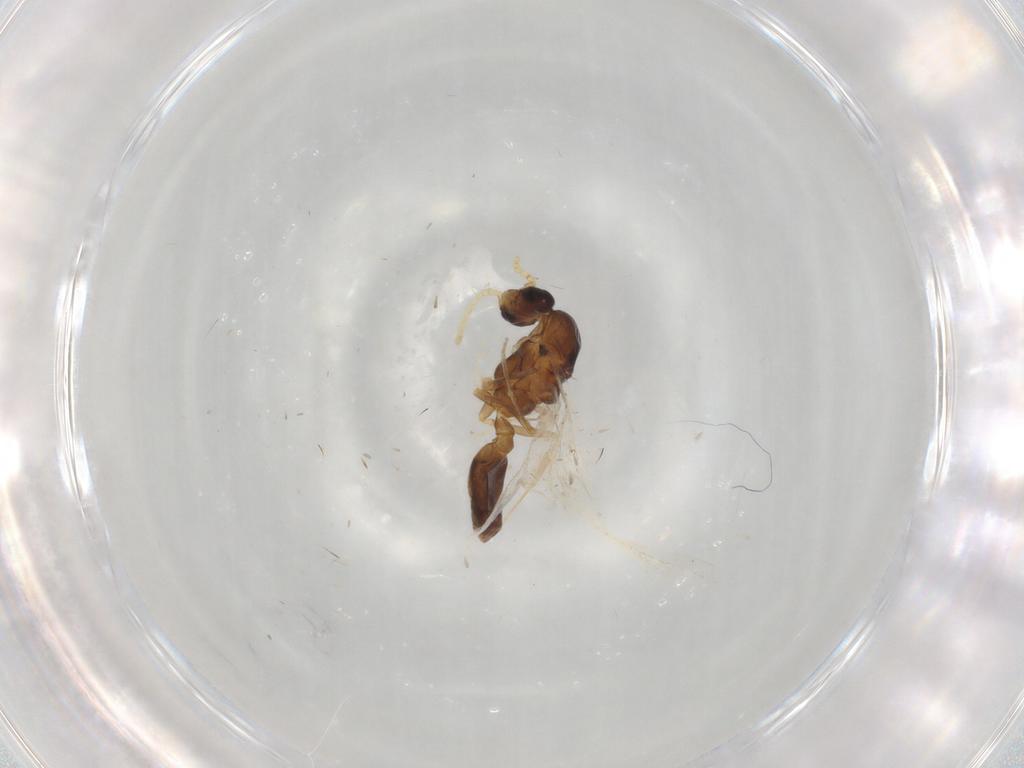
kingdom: Animalia
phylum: Arthropoda
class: Insecta
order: Hymenoptera
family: Formicidae
